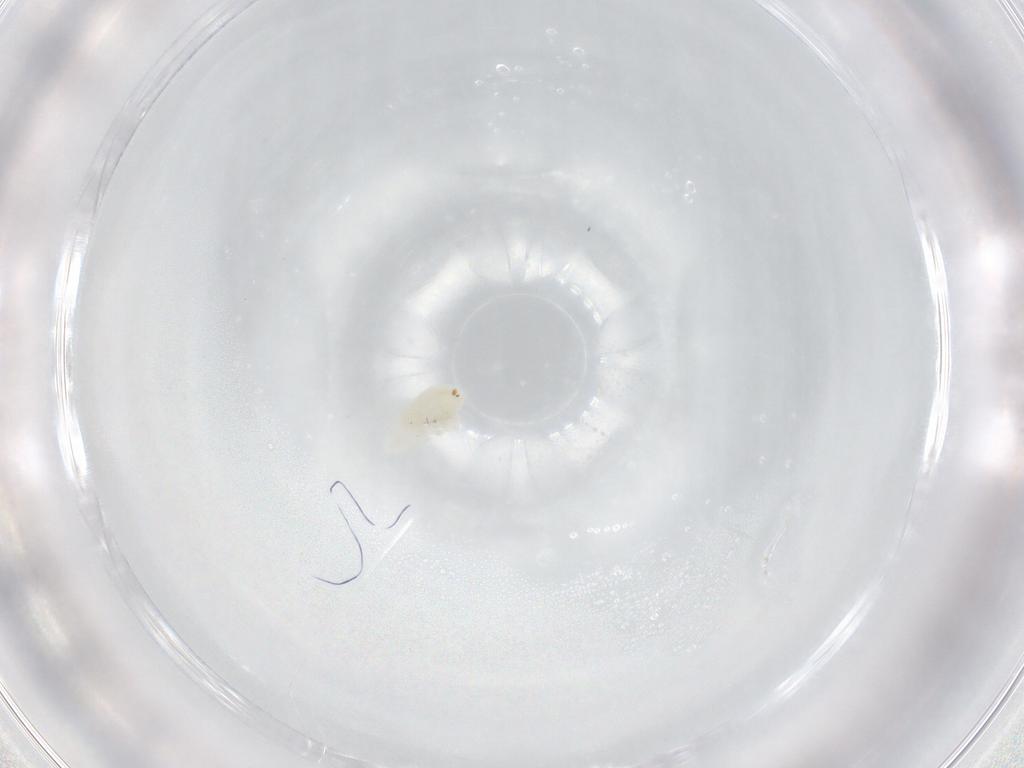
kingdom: Animalia
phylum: Arthropoda
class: Arachnida
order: Trombidiformes
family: Rhagidiidae
